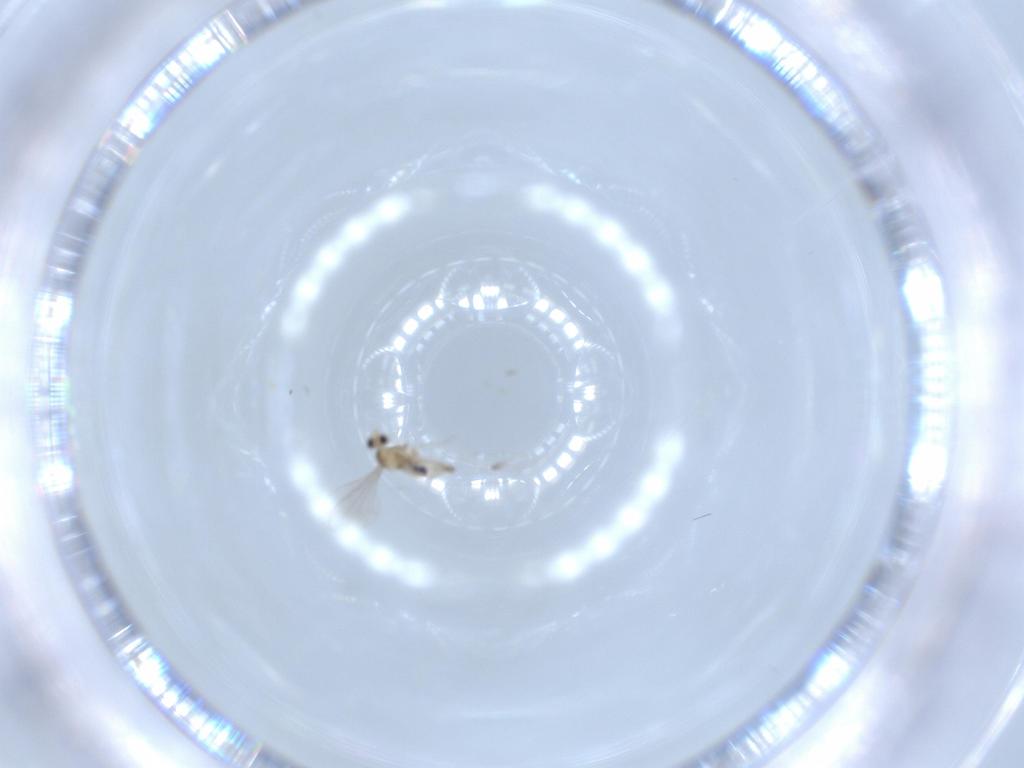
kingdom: Animalia
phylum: Arthropoda
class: Insecta
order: Diptera
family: Cecidomyiidae
